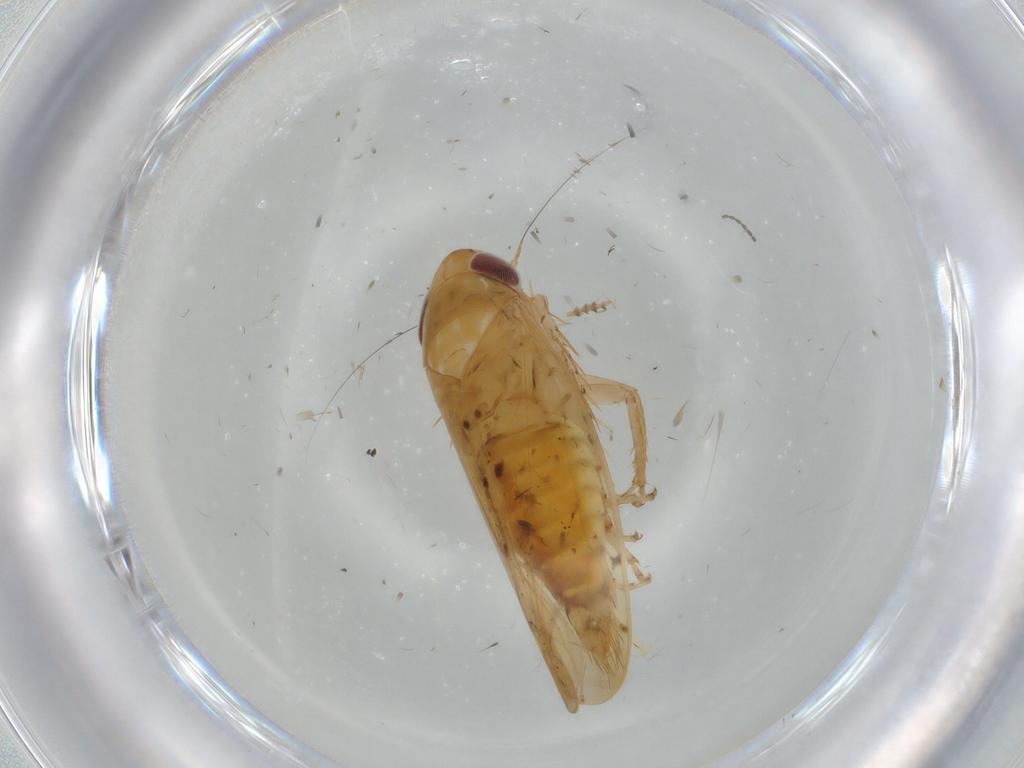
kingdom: Animalia
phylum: Arthropoda
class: Insecta
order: Hemiptera
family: Cicadellidae
